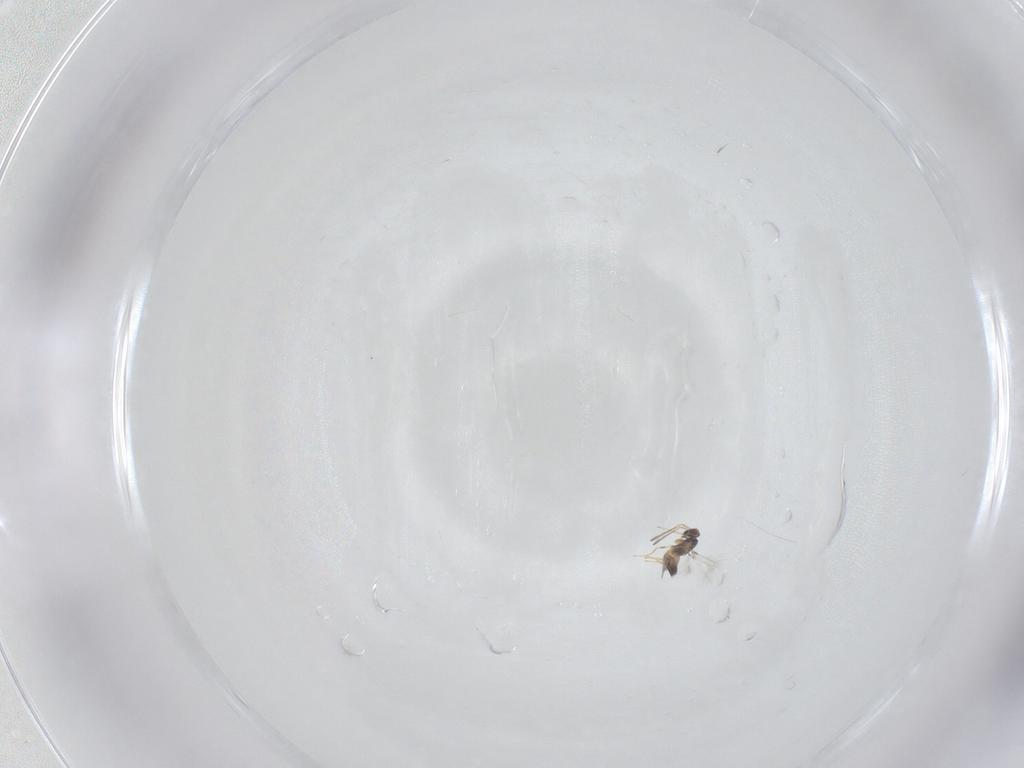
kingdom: Animalia
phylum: Arthropoda
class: Insecta
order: Hymenoptera
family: Mymaridae
